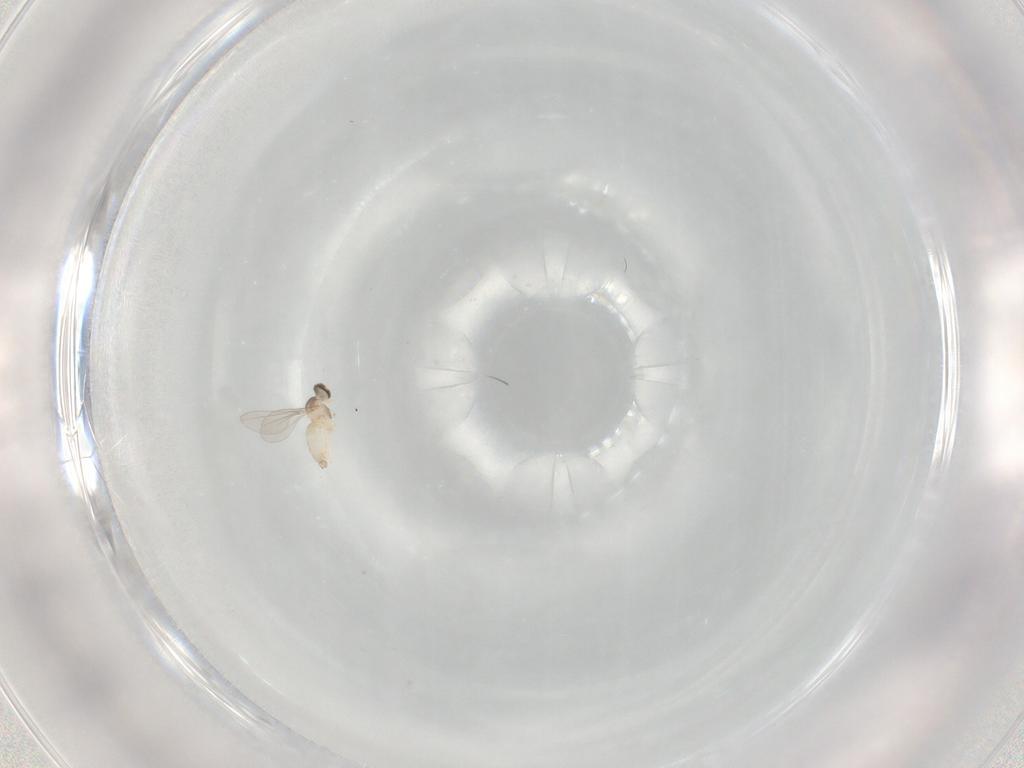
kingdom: Animalia
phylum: Arthropoda
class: Insecta
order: Diptera
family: Cecidomyiidae
